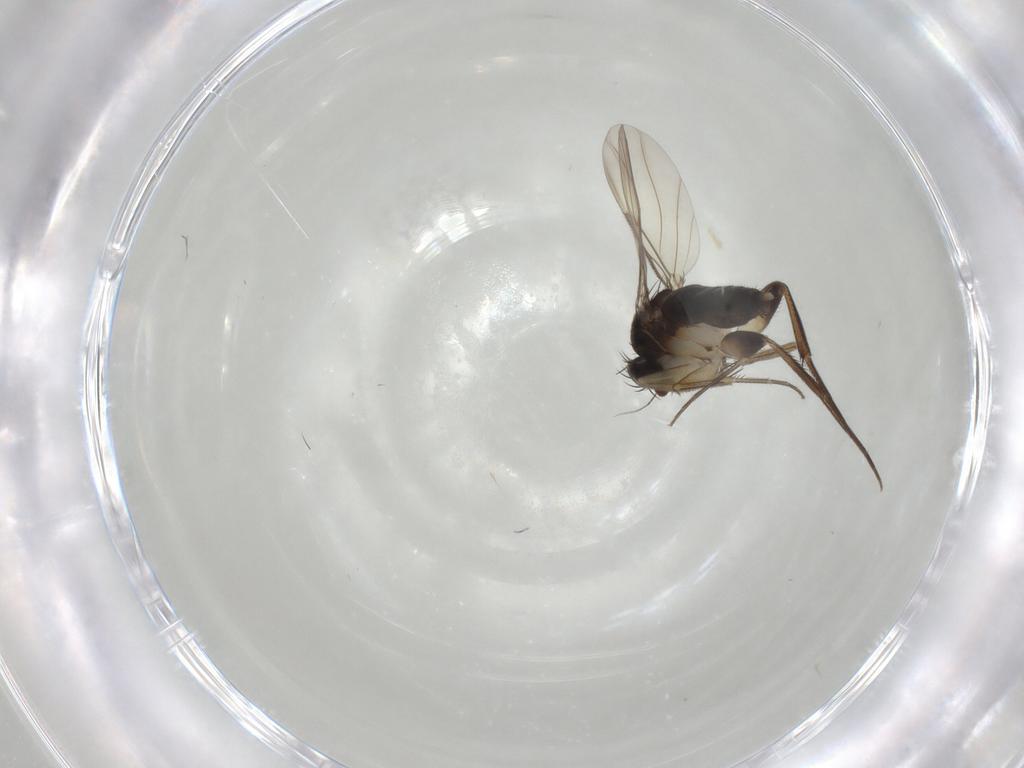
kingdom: Animalia
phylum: Arthropoda
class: Insecta
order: Diptera
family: Phoridae
